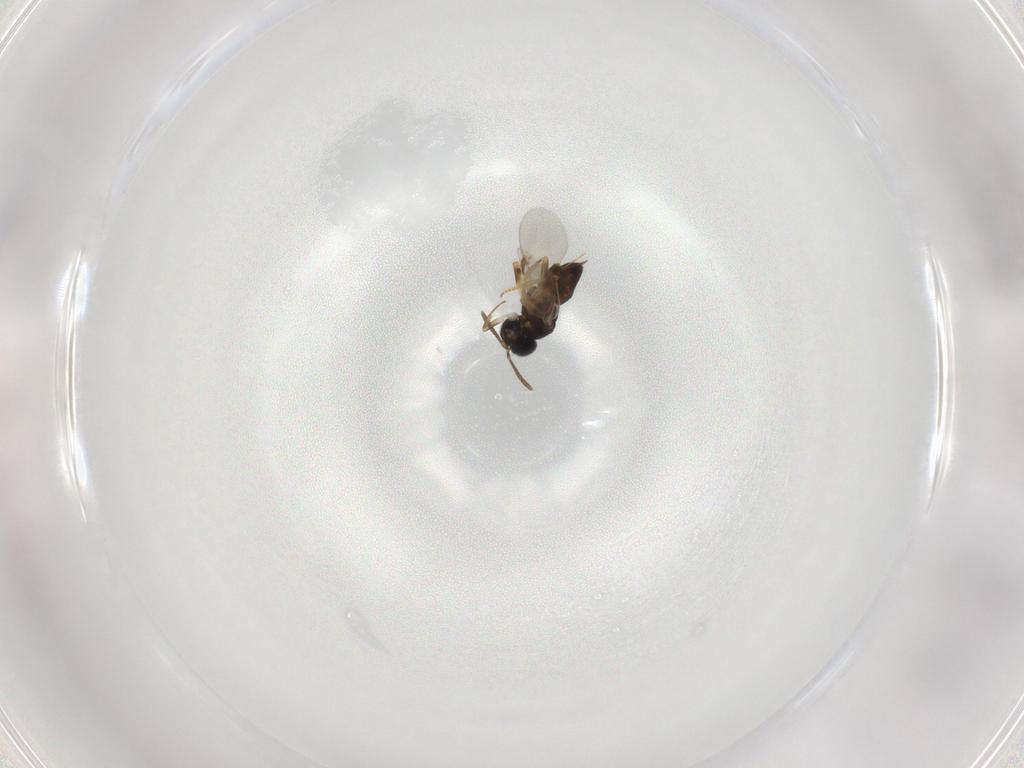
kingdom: Animalia
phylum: Arthropoda
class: Insecta
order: Hymenoptera
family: Encyrtidae
